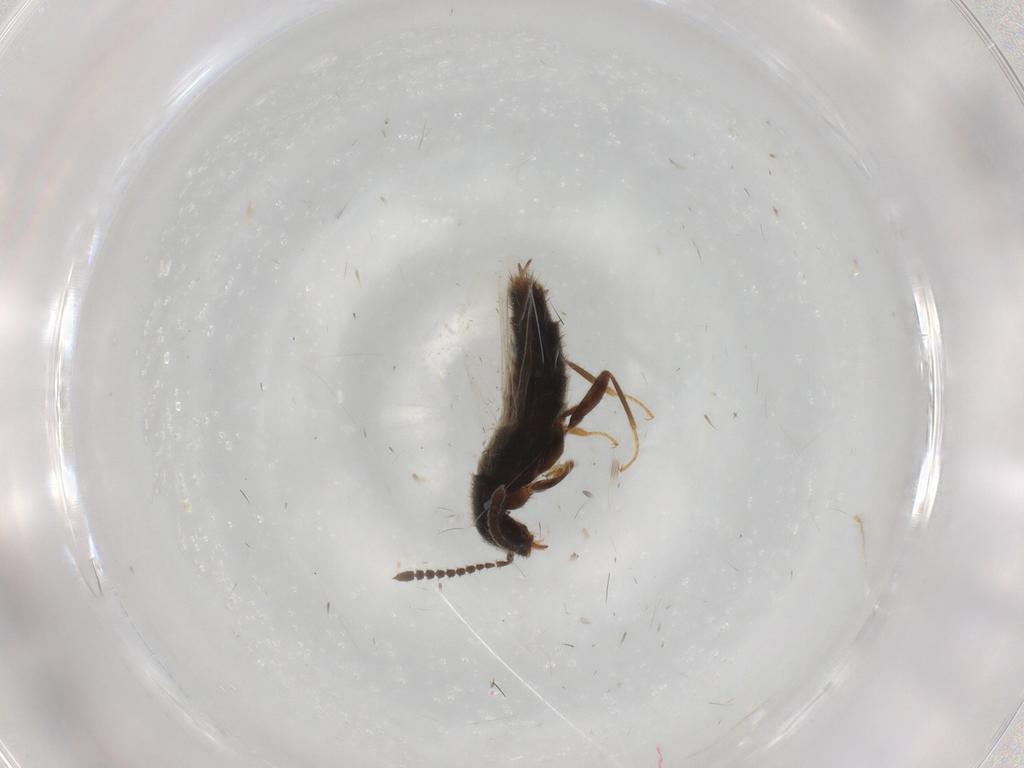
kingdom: Animalia
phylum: Arthropoda
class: Insecta
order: Coleoptera
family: Staphylinidae
